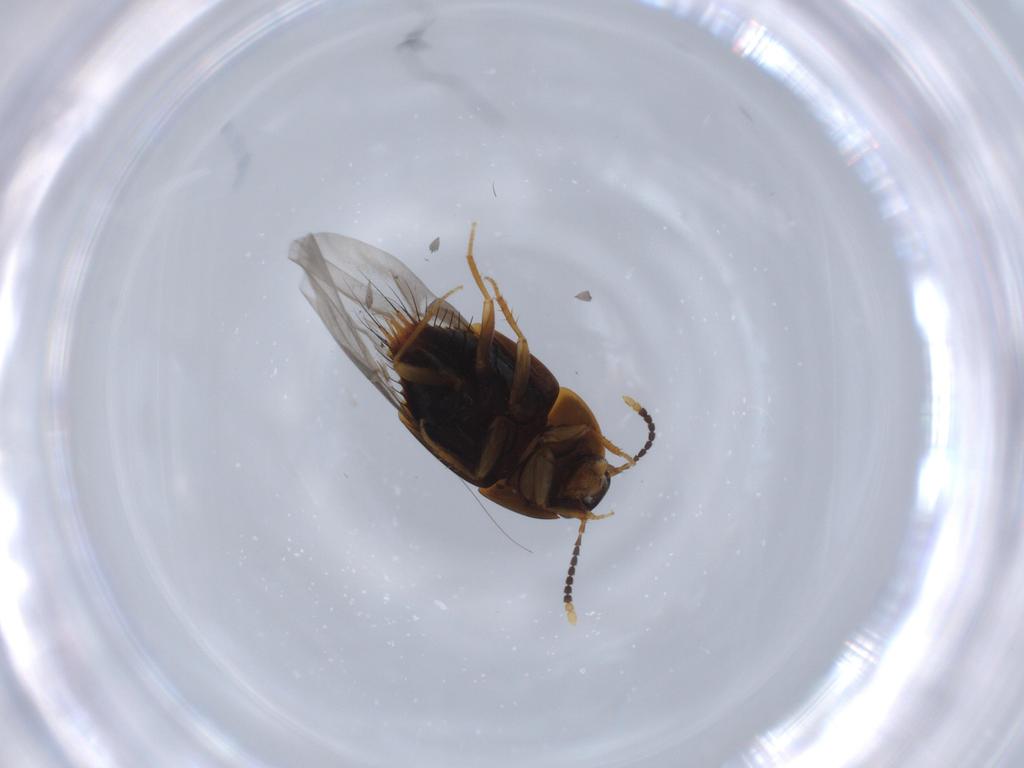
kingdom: Animalia
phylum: Arthropoda
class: Insecta
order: Coleoptera
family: Staphylinidae
